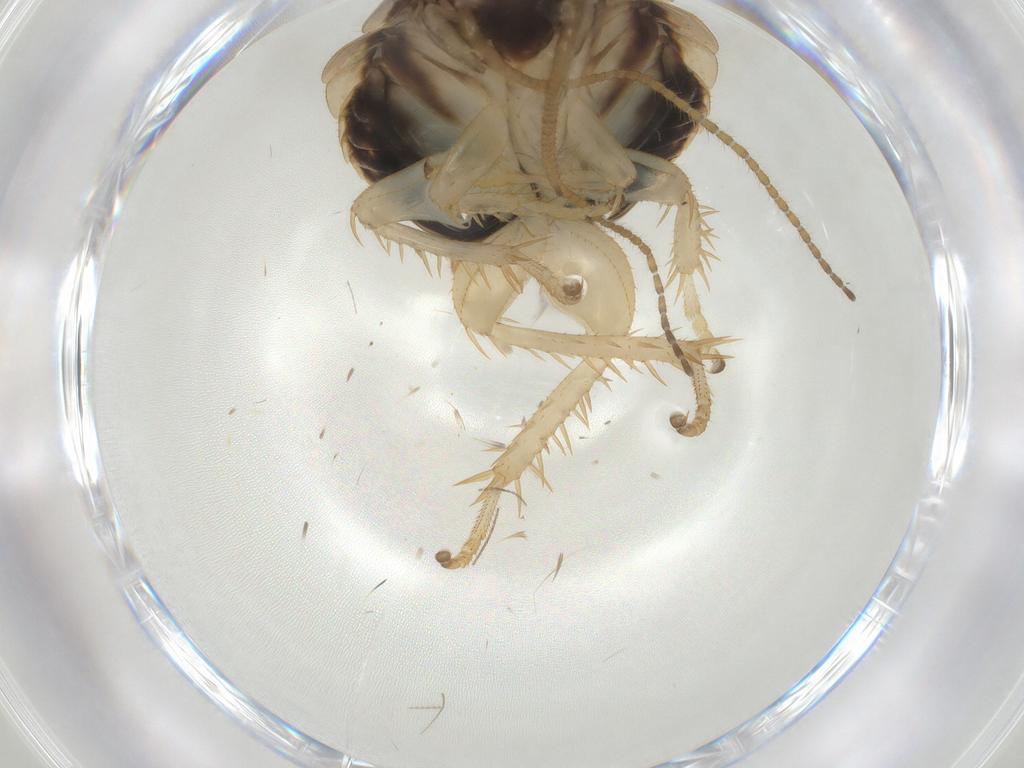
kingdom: Animalia
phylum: Arthropoda
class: Insecta
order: Blattodea
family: Ectobiidae
